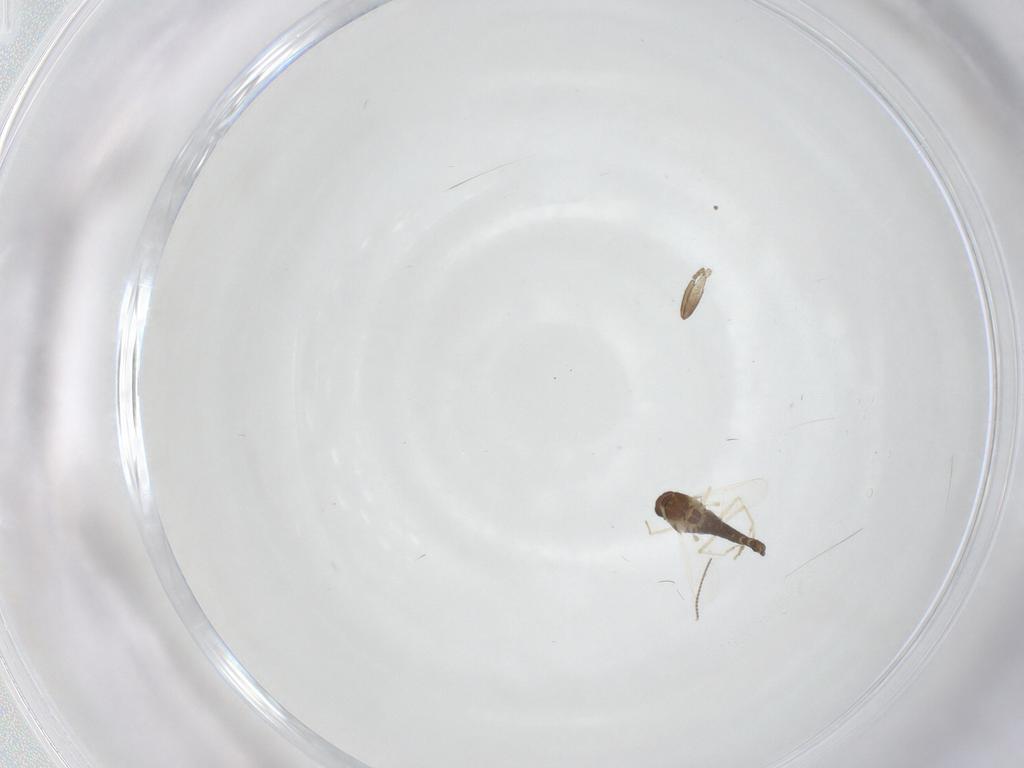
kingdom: Animalia
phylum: Arthropoda
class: Insecta
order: Diptera
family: Chironomidae
